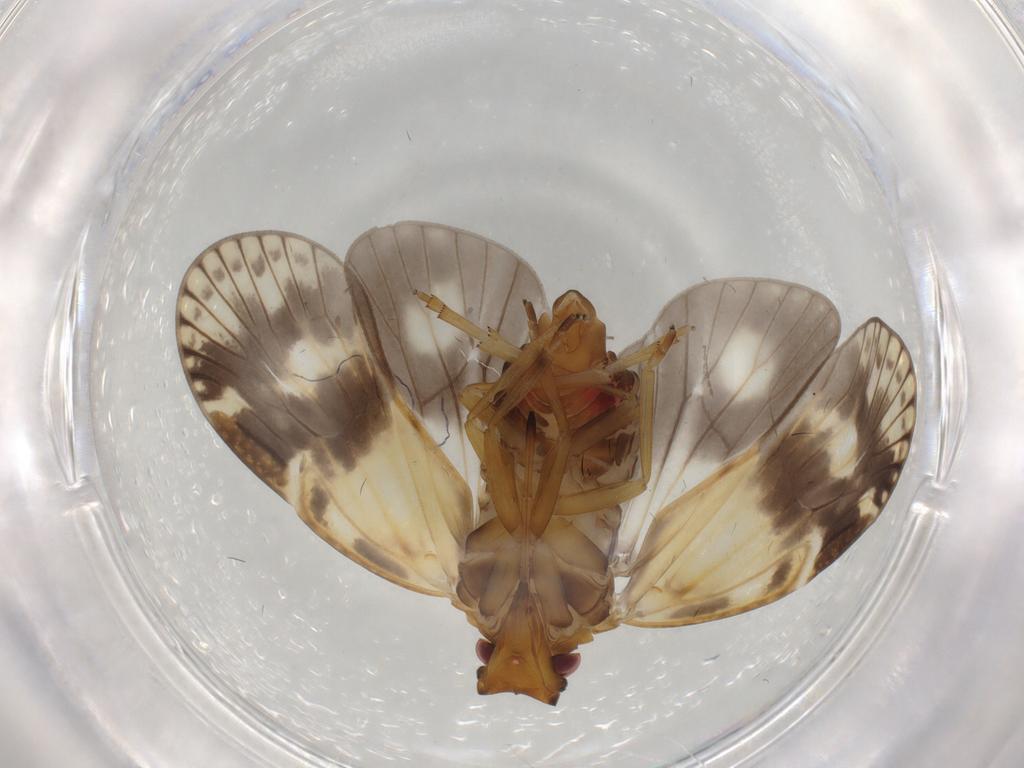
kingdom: Animalia
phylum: Arthropoda
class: Insecta
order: Hemiptera
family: Cixiidae
